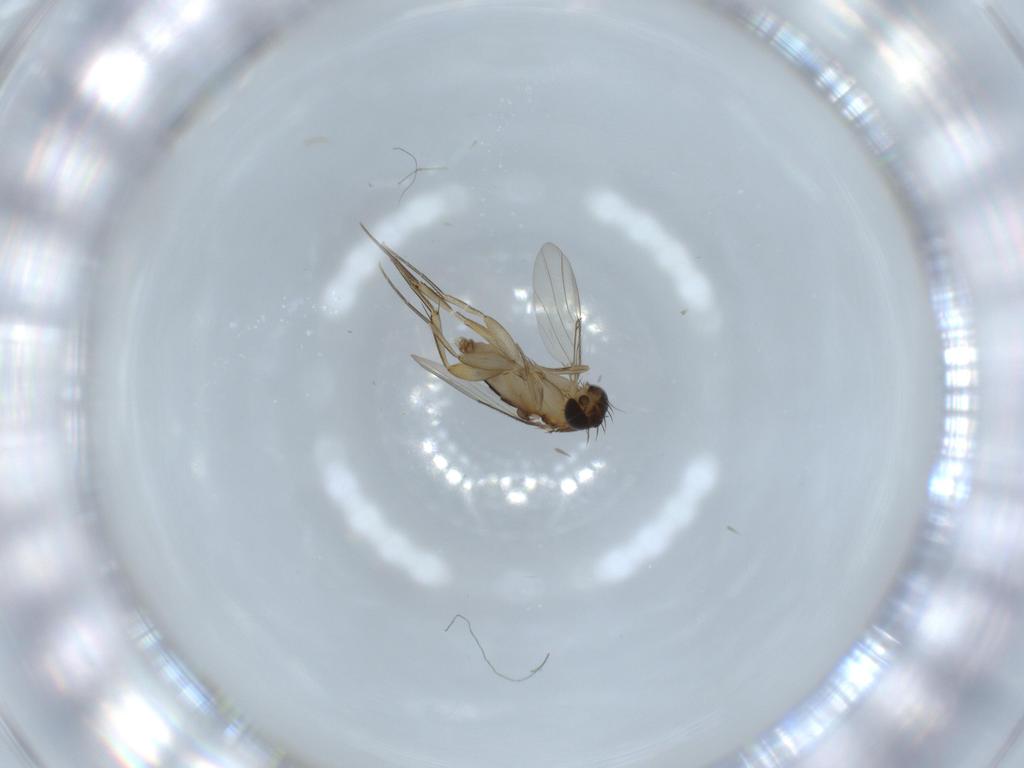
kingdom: Animalia
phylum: Arthropoda
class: Insecta
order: Diptera
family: Phoridae
